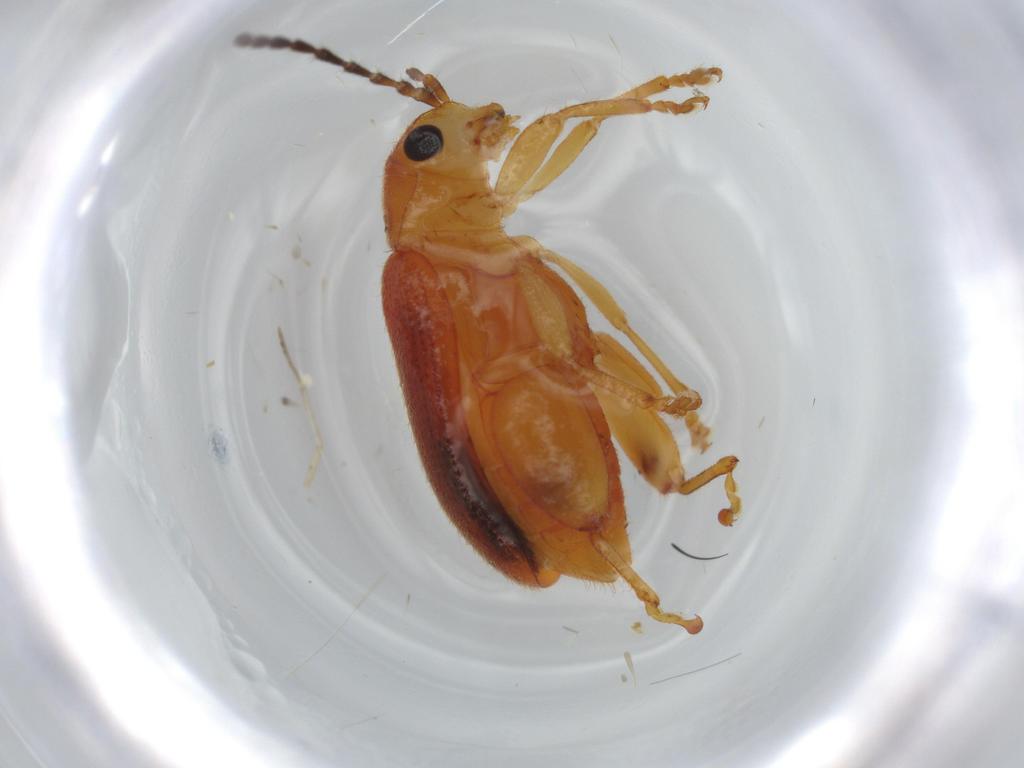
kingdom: Animalia
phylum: Arthropoda
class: Insecta
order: Coleoptera
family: Chrysomelidae
